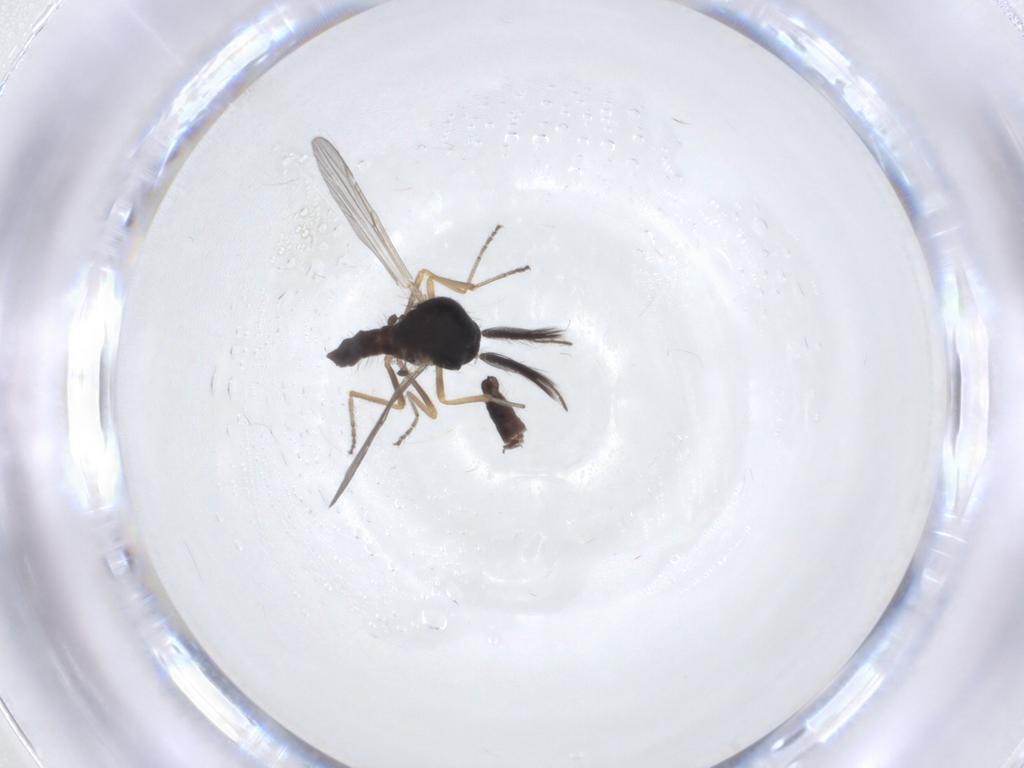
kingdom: Animalia
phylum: Arthropoda
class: Insecta
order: Diptera
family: Ceratopogonidae
